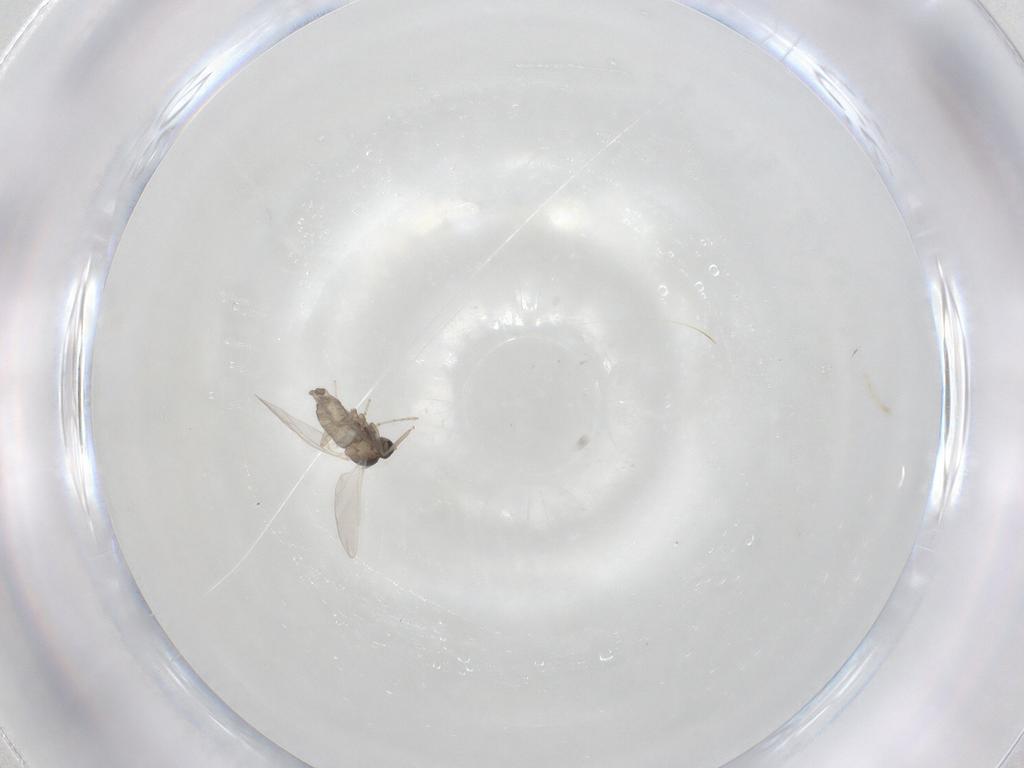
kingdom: Animalia
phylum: Arthropoda
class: Insecta
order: Diptera
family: Cecidomyiidae
